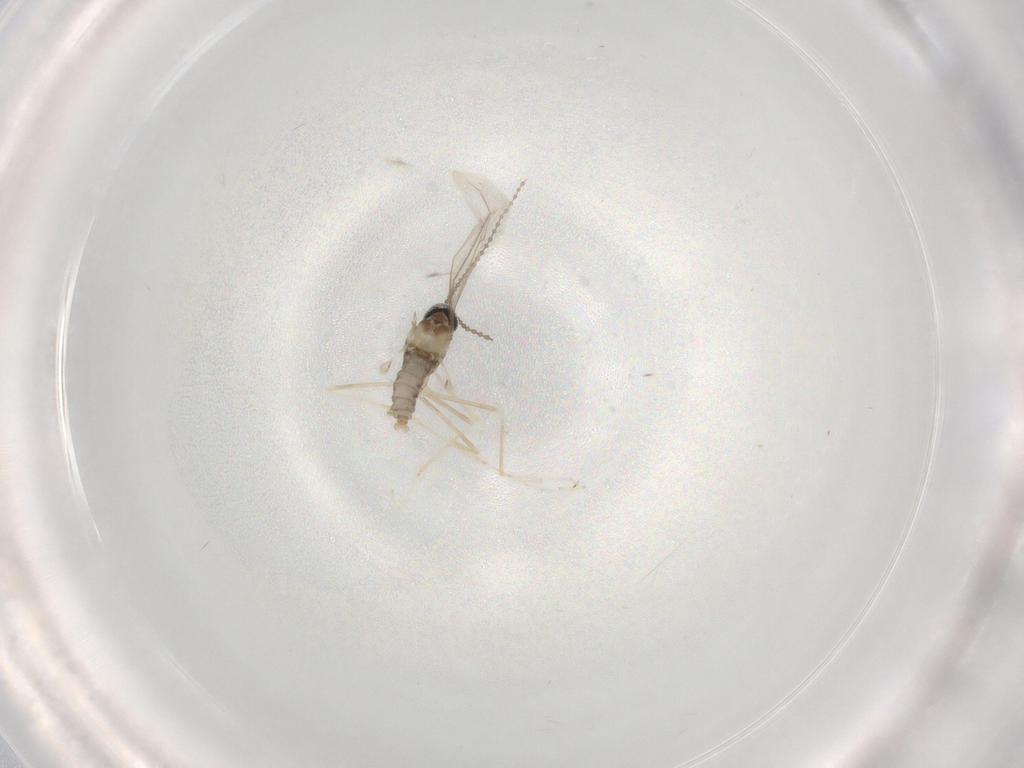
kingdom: Animalia
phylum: Arthropoda
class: Insecta
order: Diptera
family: Cecidomyiidae
